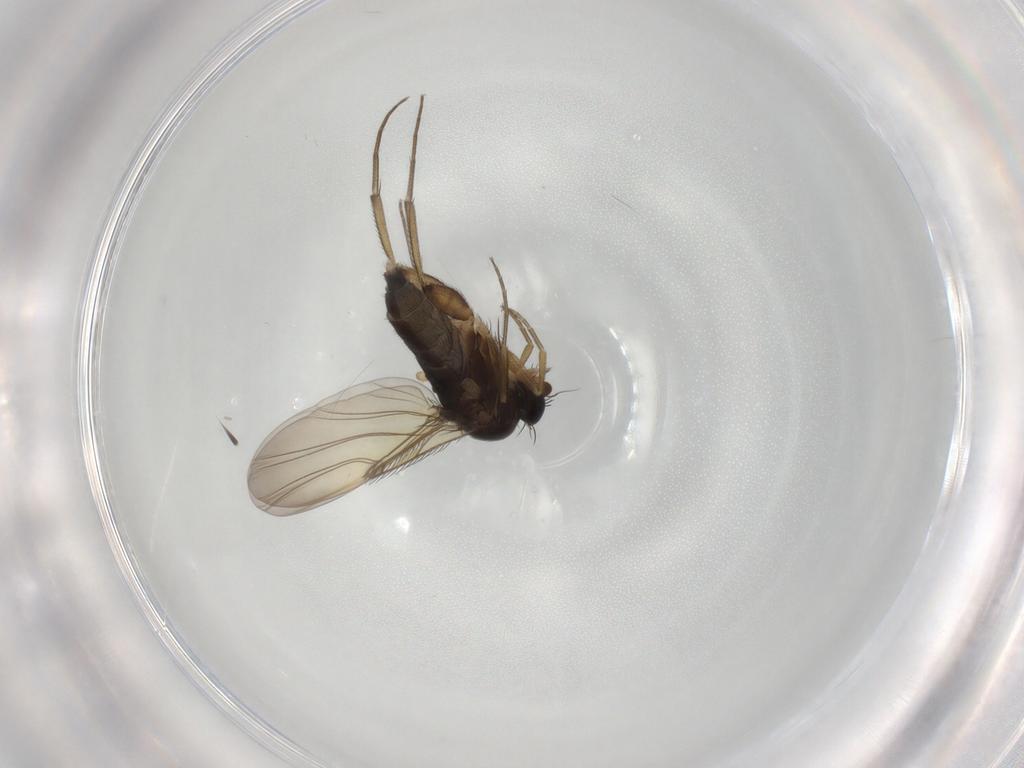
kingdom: Animalia
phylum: Arthropoda
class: Insecta
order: Diptera
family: Phoridae
